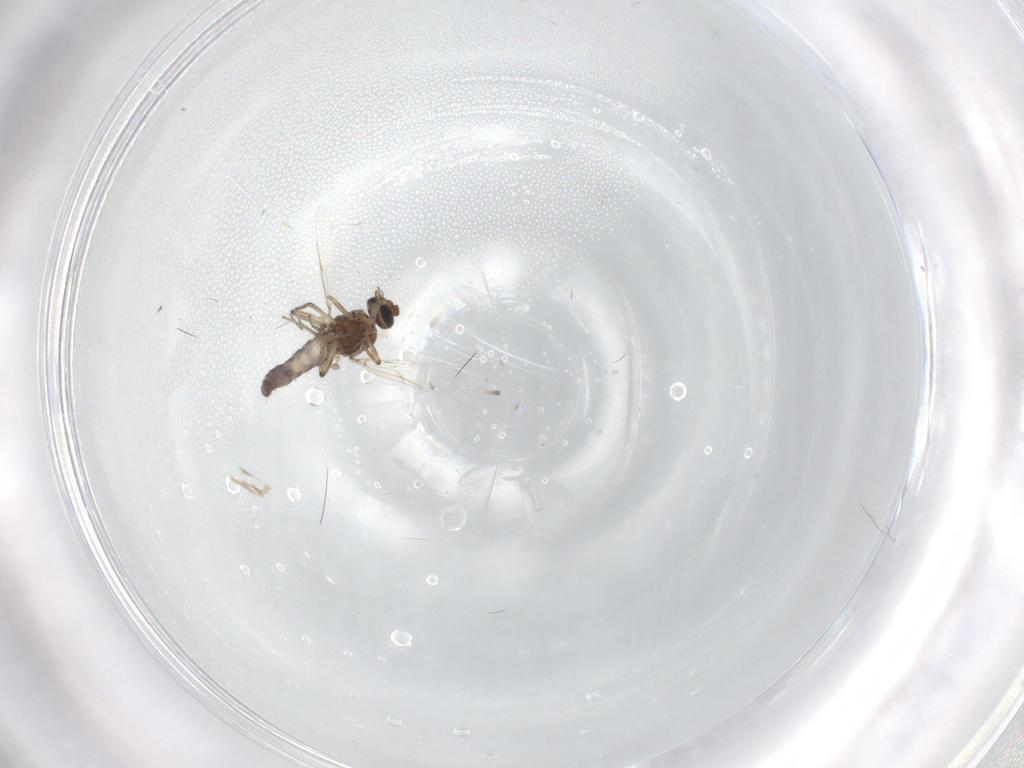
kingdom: Animalia
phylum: Arthropoda
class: Insecta
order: Diptera
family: Ceratopogonidae
